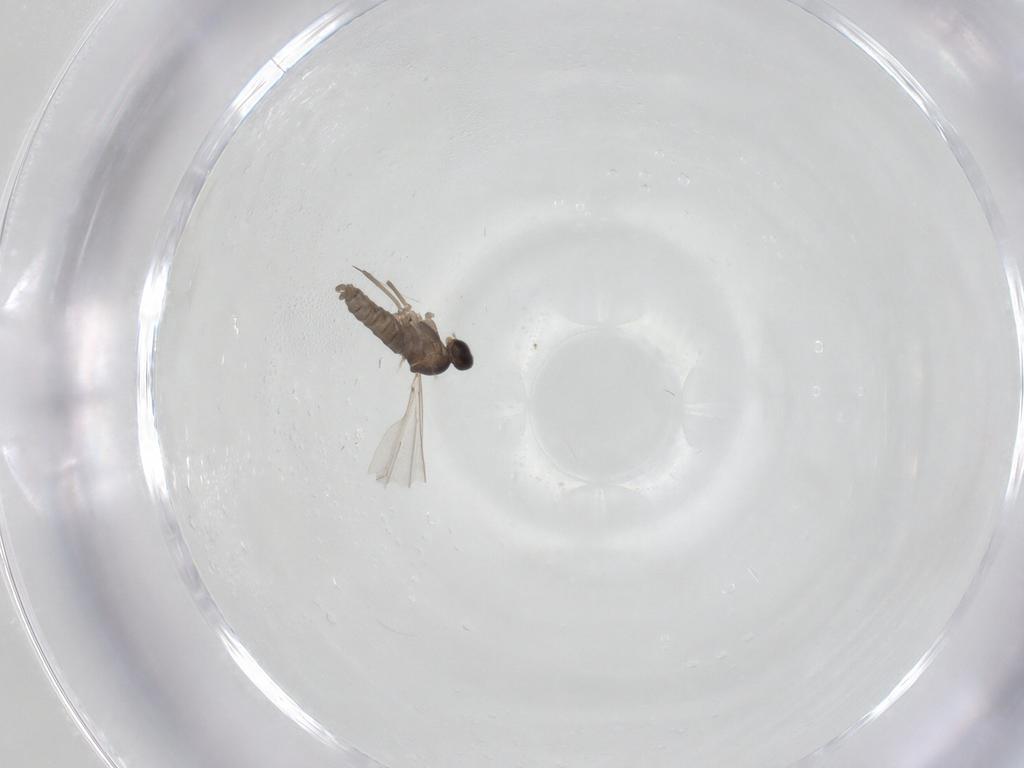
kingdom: Animalia
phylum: Arthropoda
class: Insecta
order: Diptera
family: Cecidomyiidae
